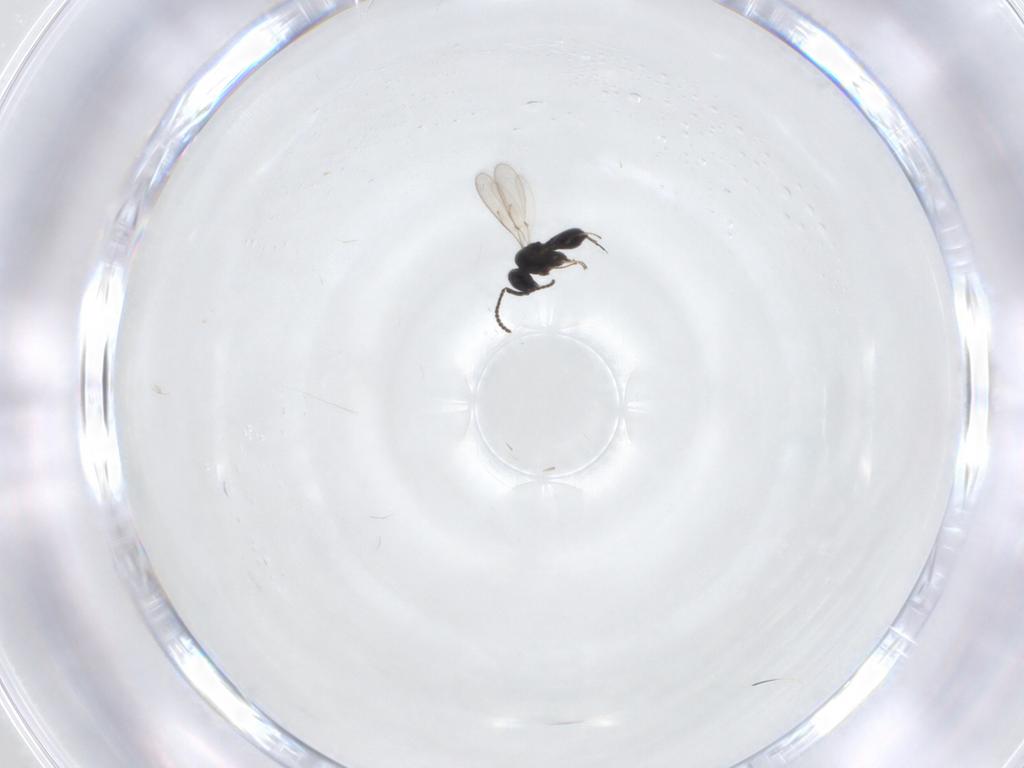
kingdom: Animalia
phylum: Arthropoda
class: Insecta
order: Hymenoptera
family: Scelionidae
